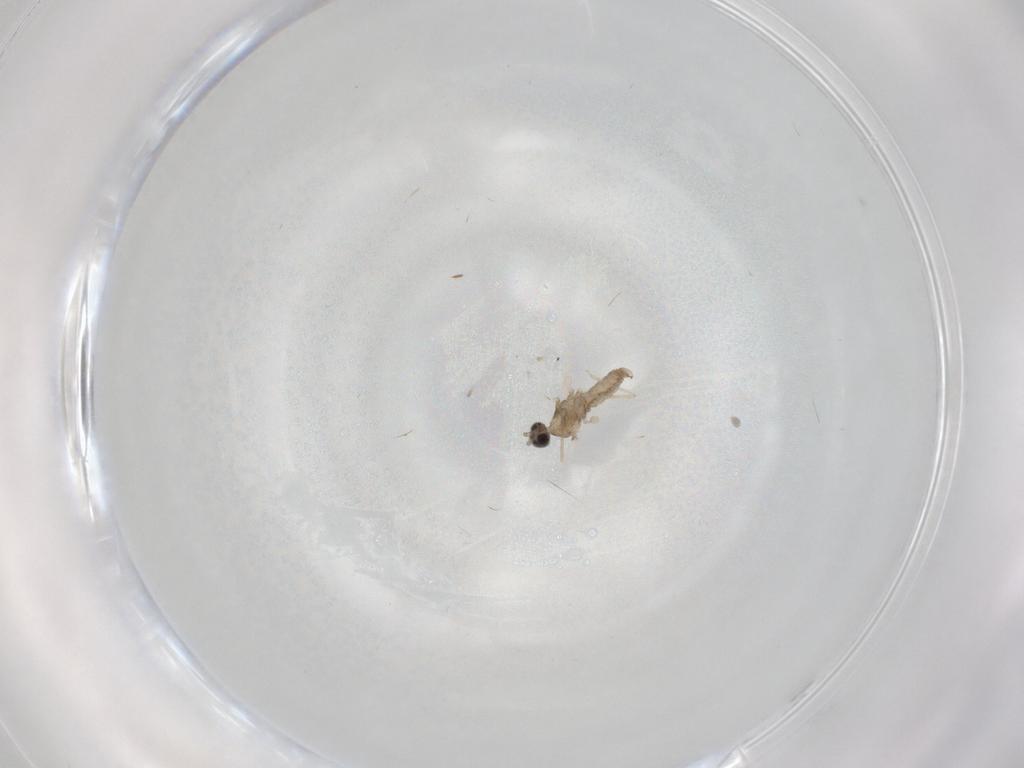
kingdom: Animalia
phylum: Arthropoda
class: Insecta
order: Diptera
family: Cecidomyiidae
